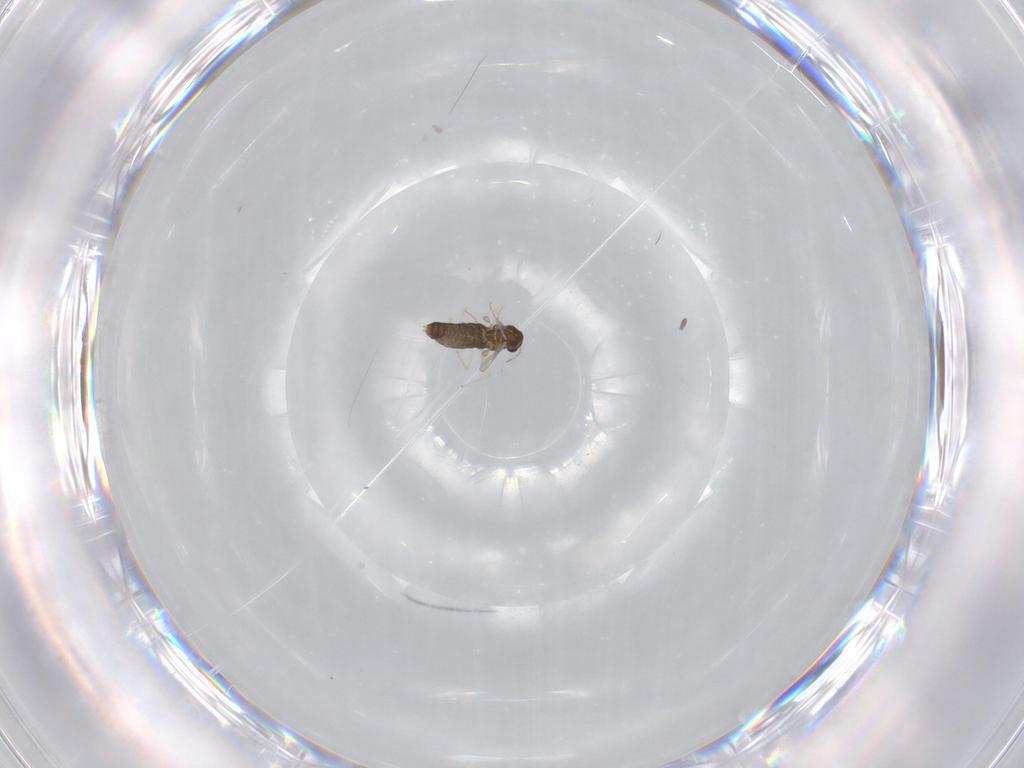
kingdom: Animalia
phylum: Arthropoda
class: Insecta
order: Diptera
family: Chironomidae
